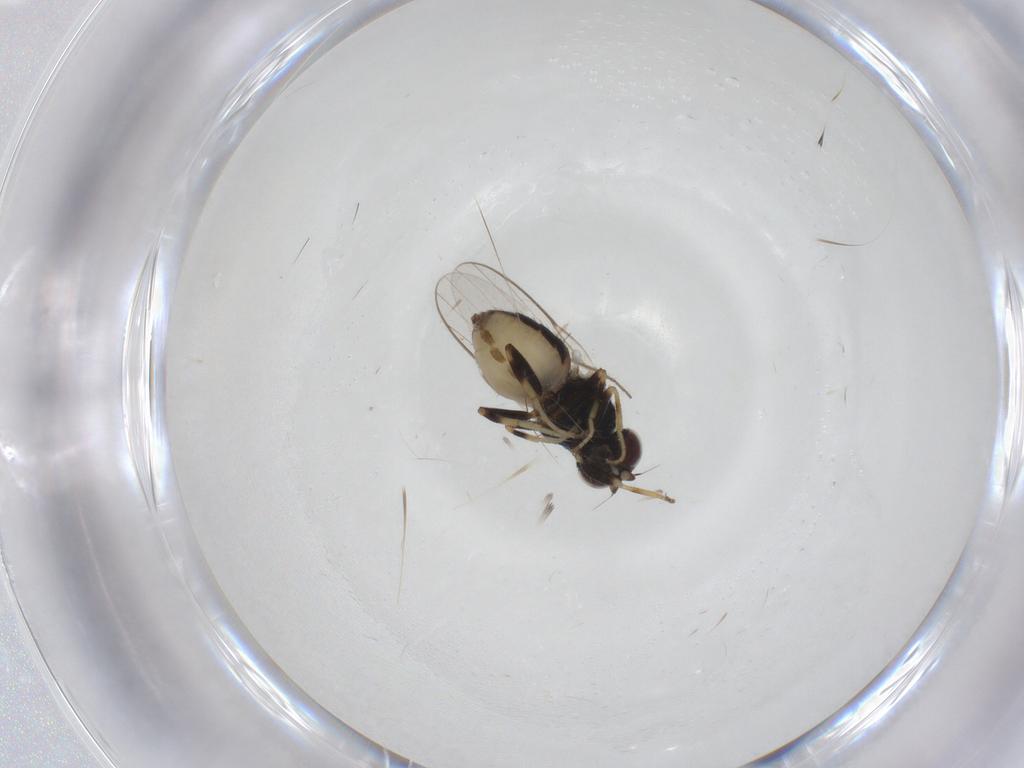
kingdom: Animalia
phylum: Arthropoda
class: Insecta
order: Diptera
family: Chloropidae
